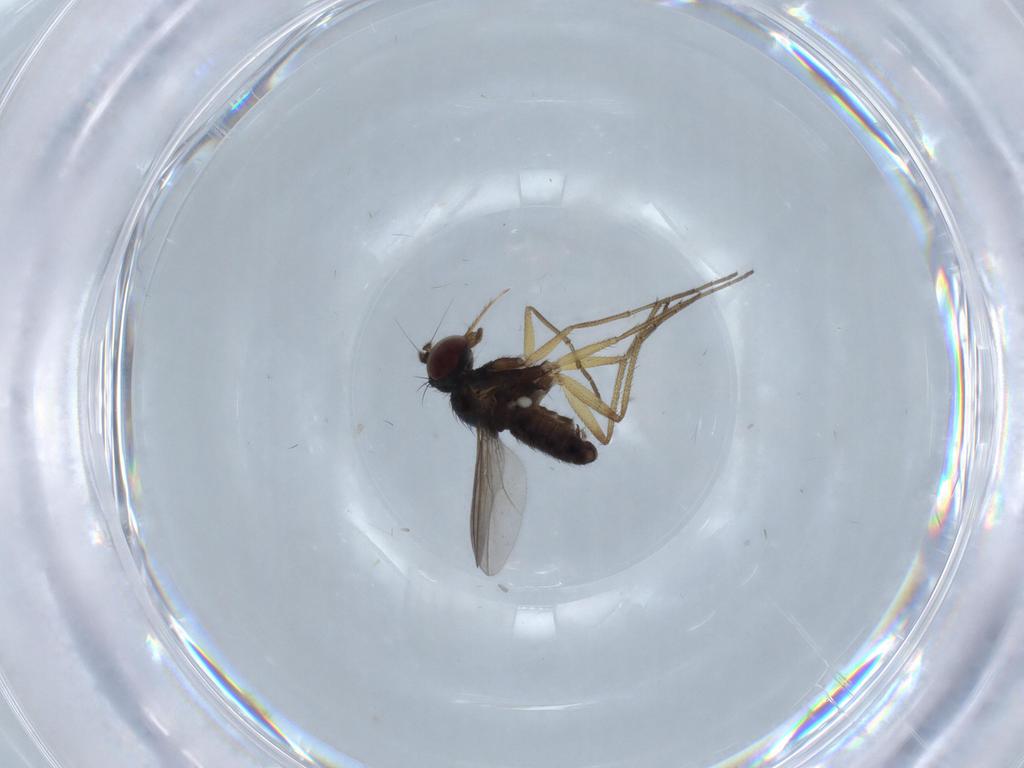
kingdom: Animalia
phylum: Arthropoda
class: Insecta
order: Diptera
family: Dolichopodidae
